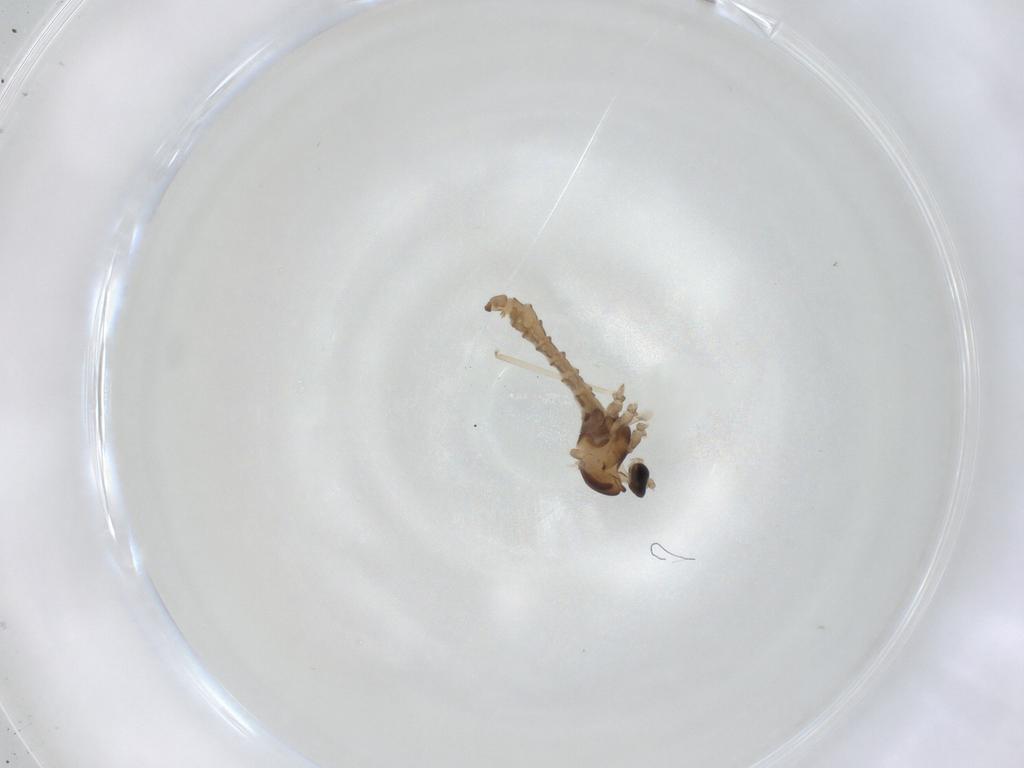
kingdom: Animalia
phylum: Arthropoda
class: Insecta
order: Diptera
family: Cecidomyiidae
